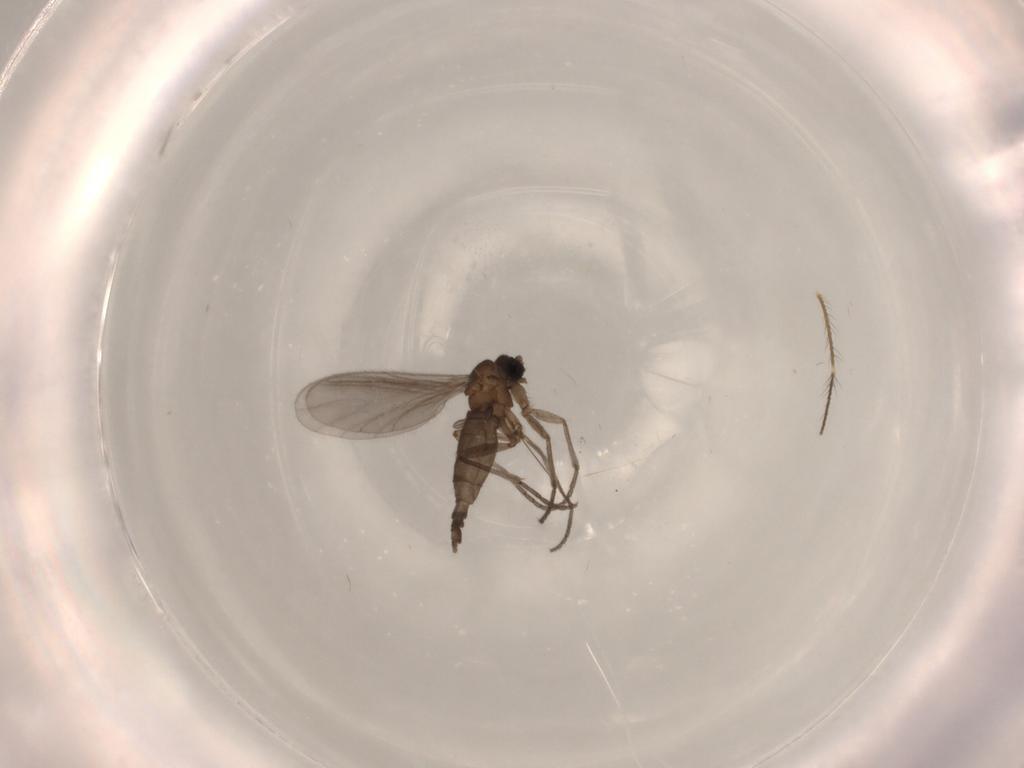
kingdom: Animalia
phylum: Arthropoda
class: Insecta
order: Diptera
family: Sciaridae
